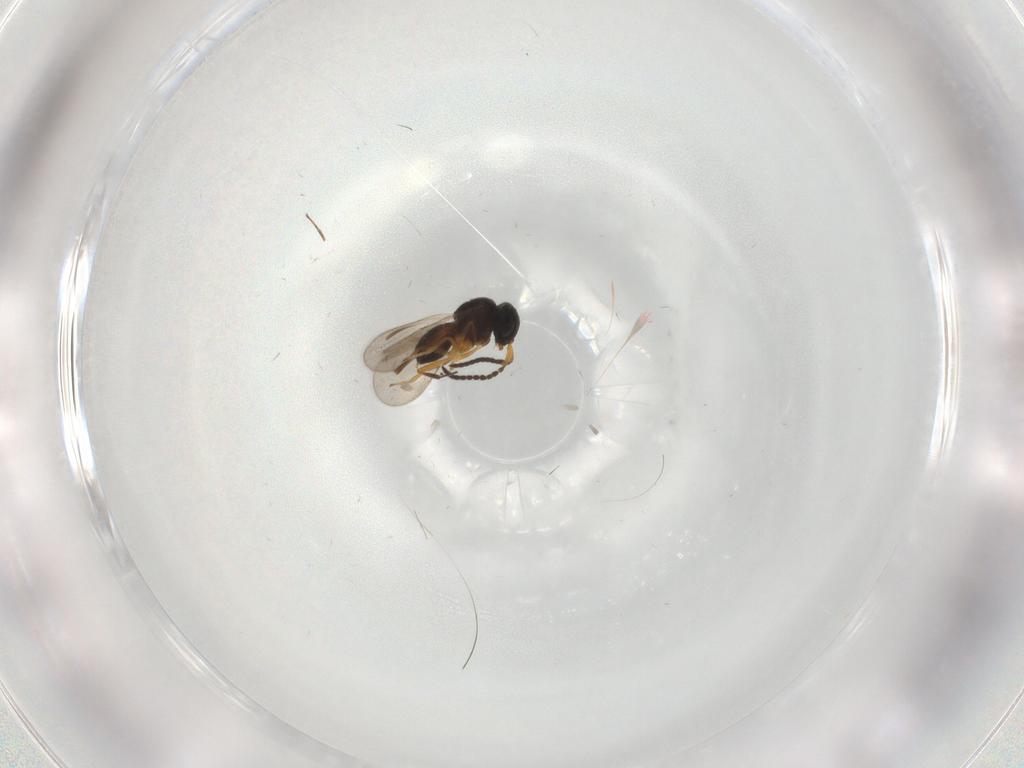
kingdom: Animalia
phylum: Arthropoda
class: Insecta
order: Hymenoptera
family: Scelionidae
